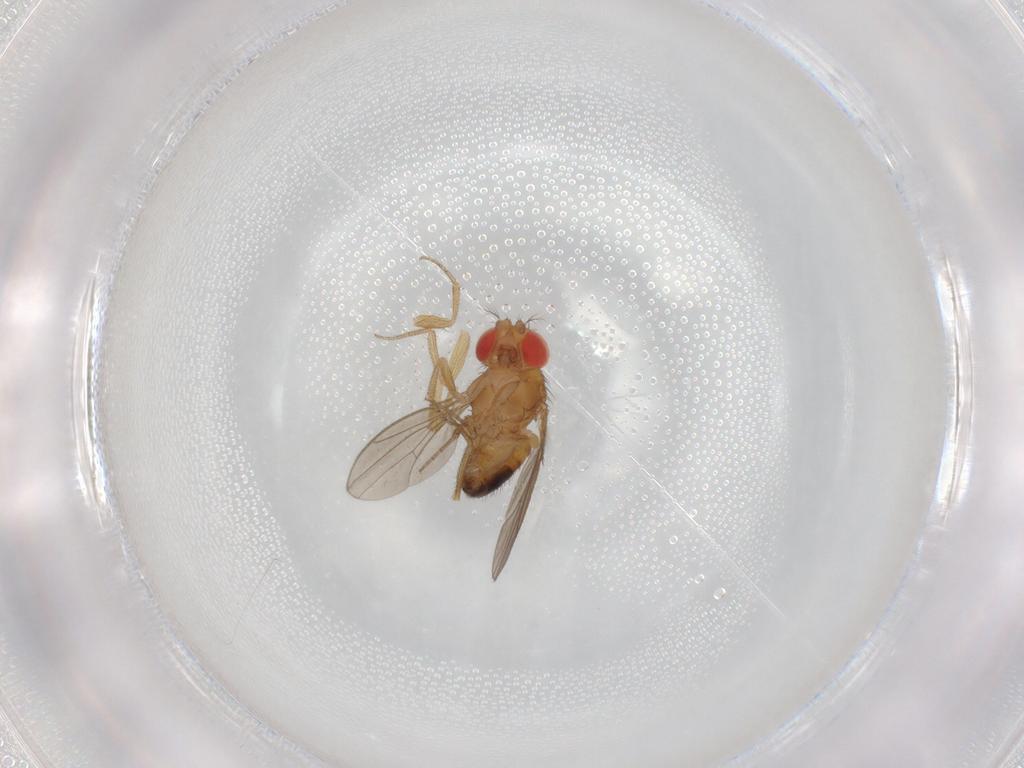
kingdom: Animalia
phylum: Arthropoda
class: Insecta
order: Diptera
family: Drosophilidae
